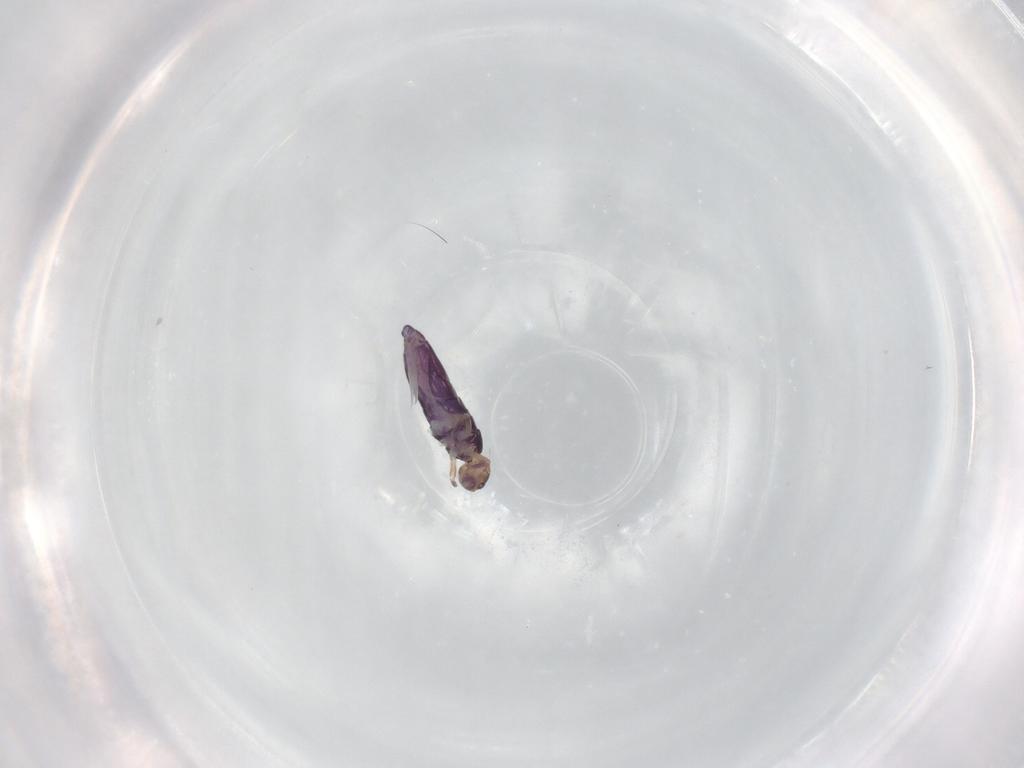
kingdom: Animalia
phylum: Arthropoda
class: Collembola
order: Entomobryomorpha
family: Entomobryidae
